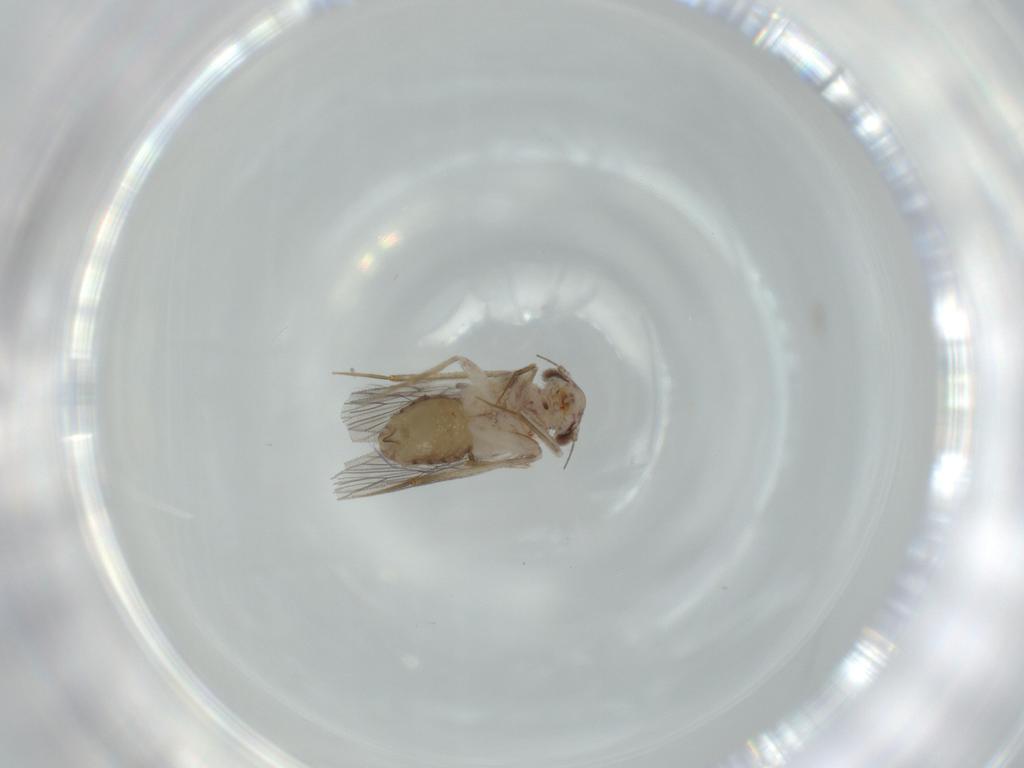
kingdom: Animalia
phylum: Arthropoda
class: Insecta
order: Psocodea
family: Lepidopsocidae
